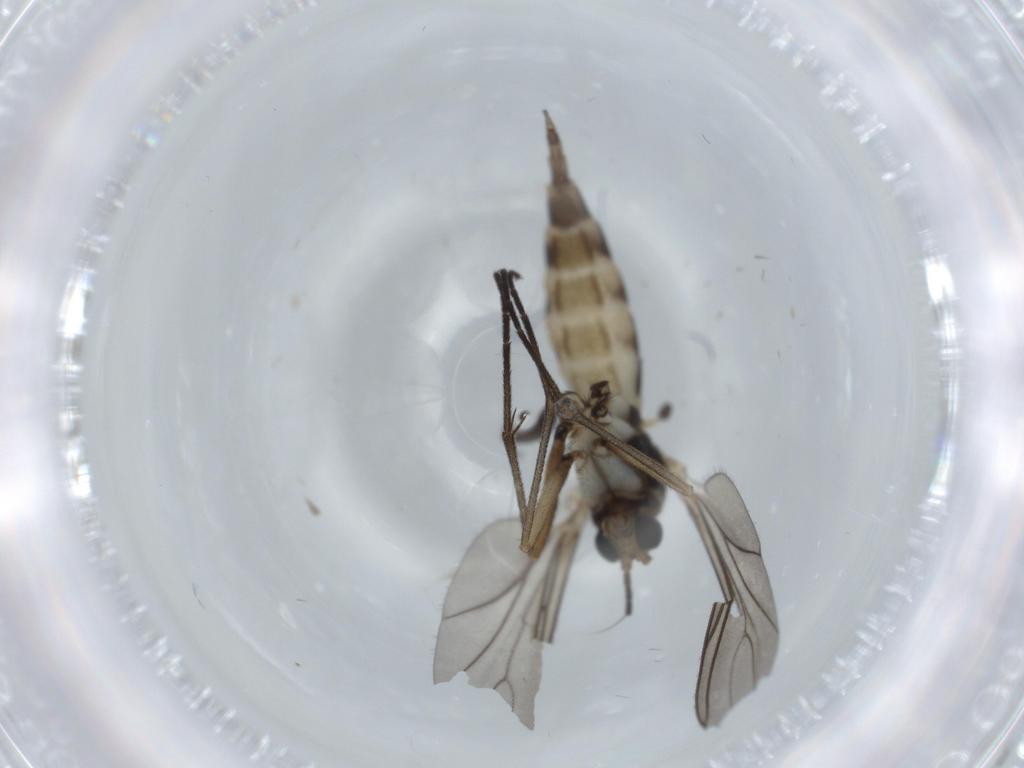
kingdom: Animalia
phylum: Arthropoda
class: Insecta
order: Diptera
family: Sciaridae
